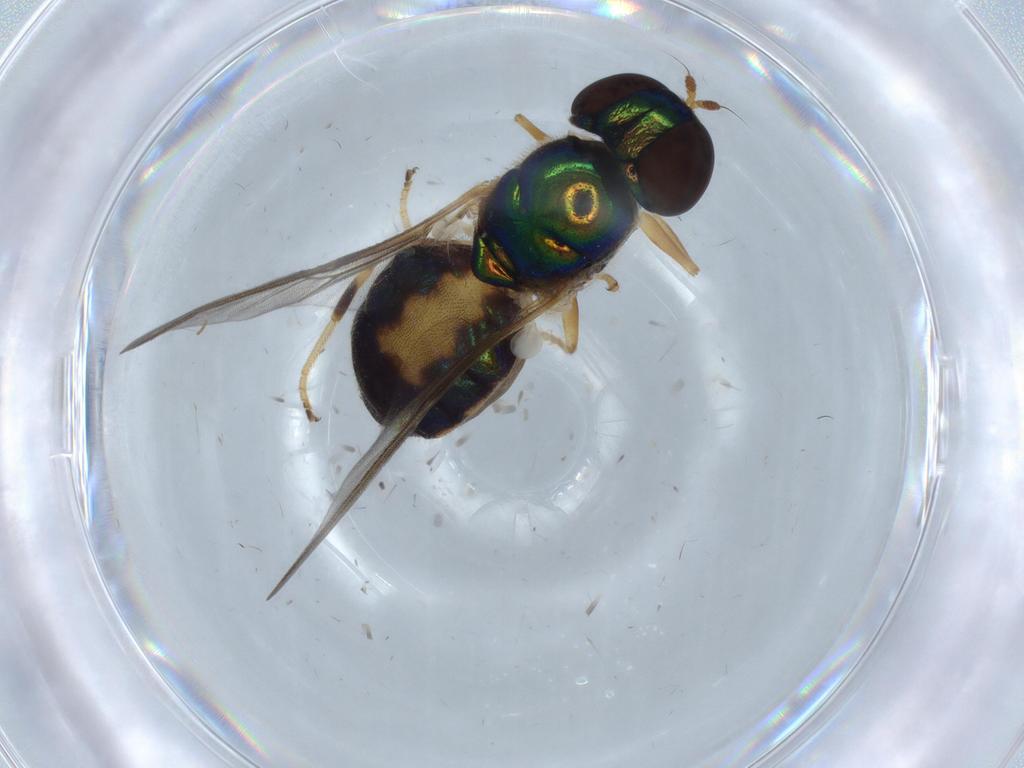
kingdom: Animalia
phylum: Arthropoda
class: Insecta
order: Diptera
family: Cecidomyiidae
